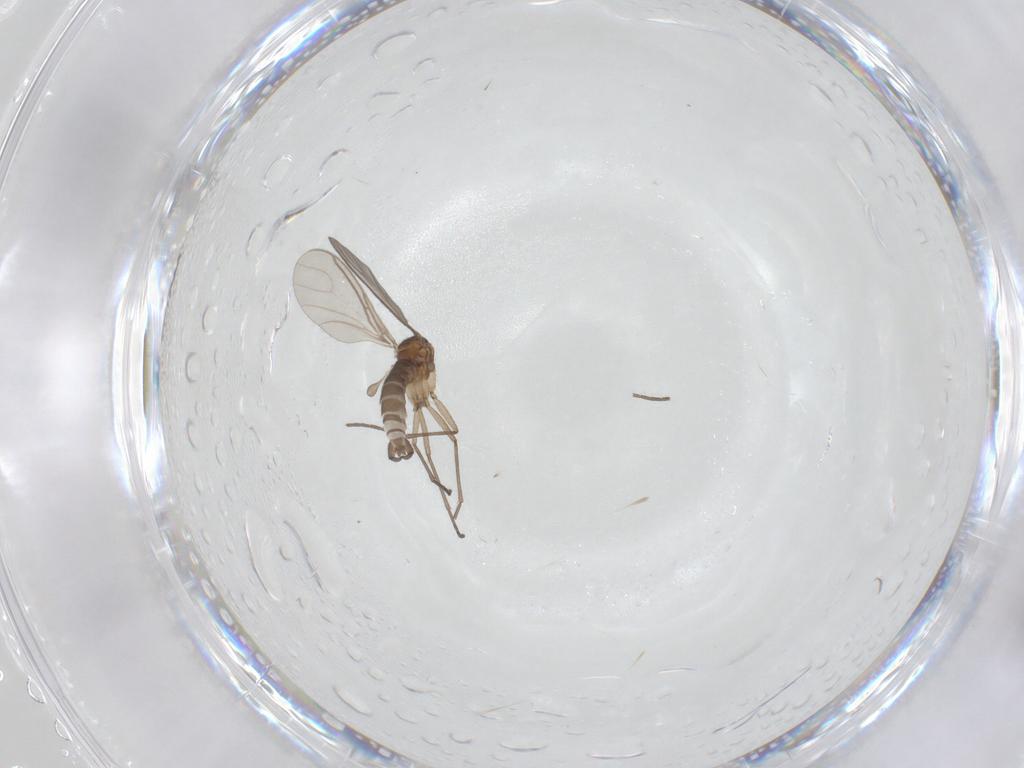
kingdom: Animalia
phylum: Arthropoda
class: Insecta
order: Diptera
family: Sciaridae
